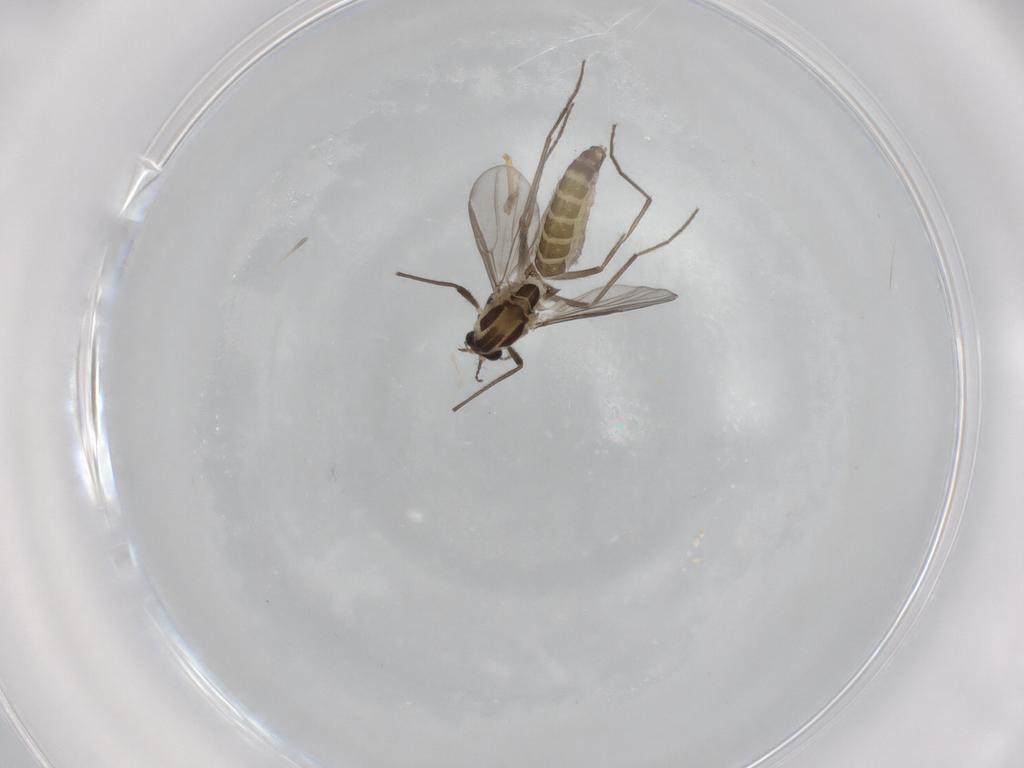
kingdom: Animalia
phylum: Arthropoda
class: Insecta
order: Diptera
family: Chironomidae
